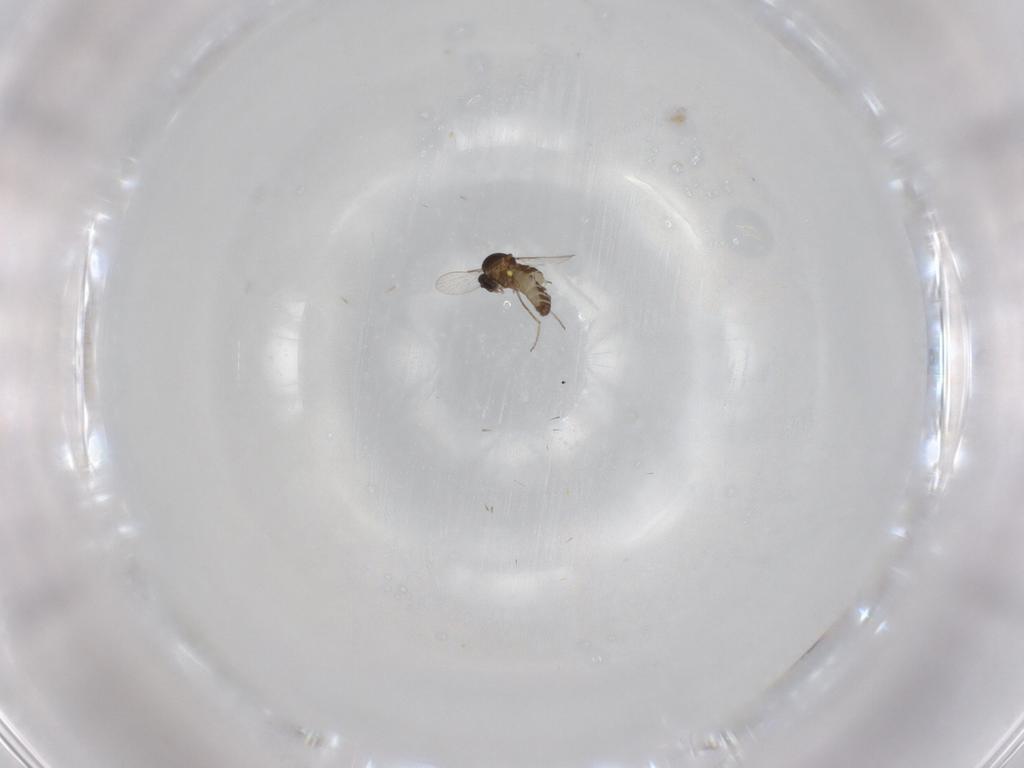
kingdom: Animalia
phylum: Arthropoda
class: Insecta
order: Diptera
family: Ceratopogonidae
